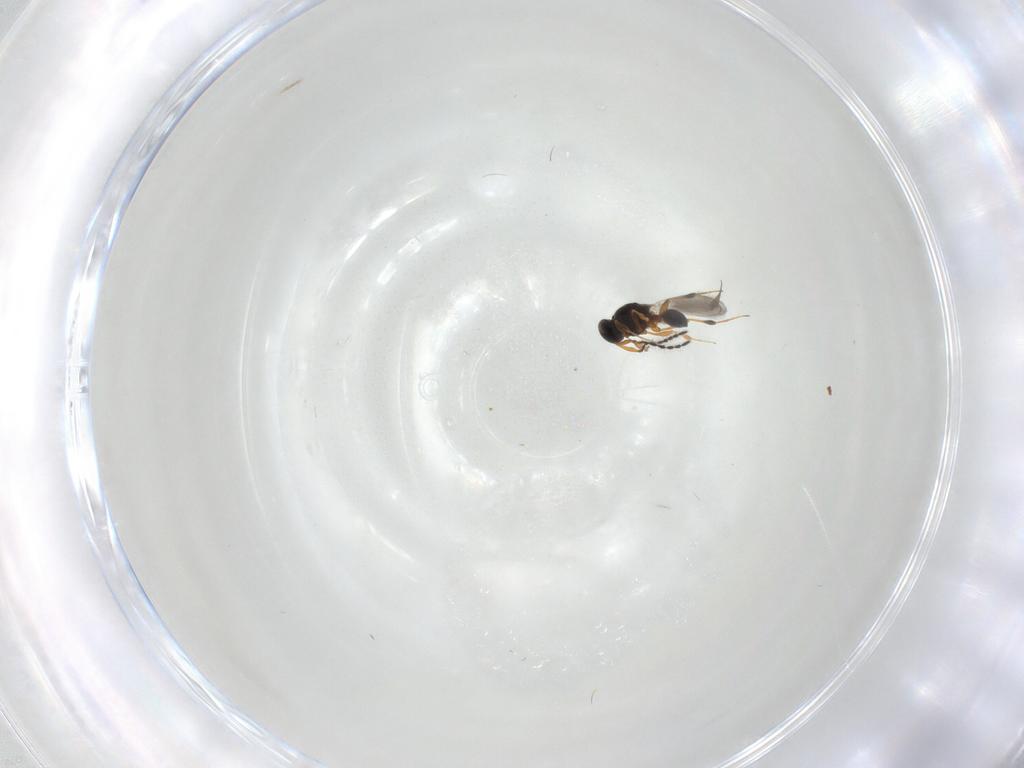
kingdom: Animalia
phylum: Arthropoda
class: Insecta
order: Hymenoptera
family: Platygastridae
